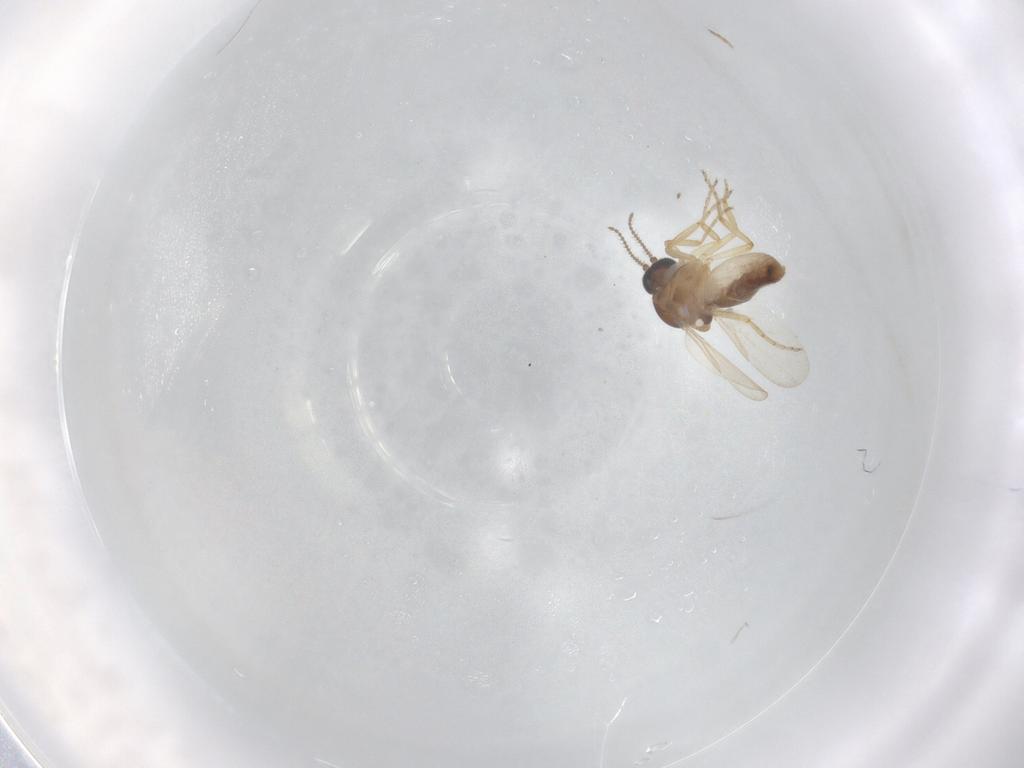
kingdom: Animalia
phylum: Arthropoda
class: Insecta
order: Diptera
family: Ceratopogonidae
